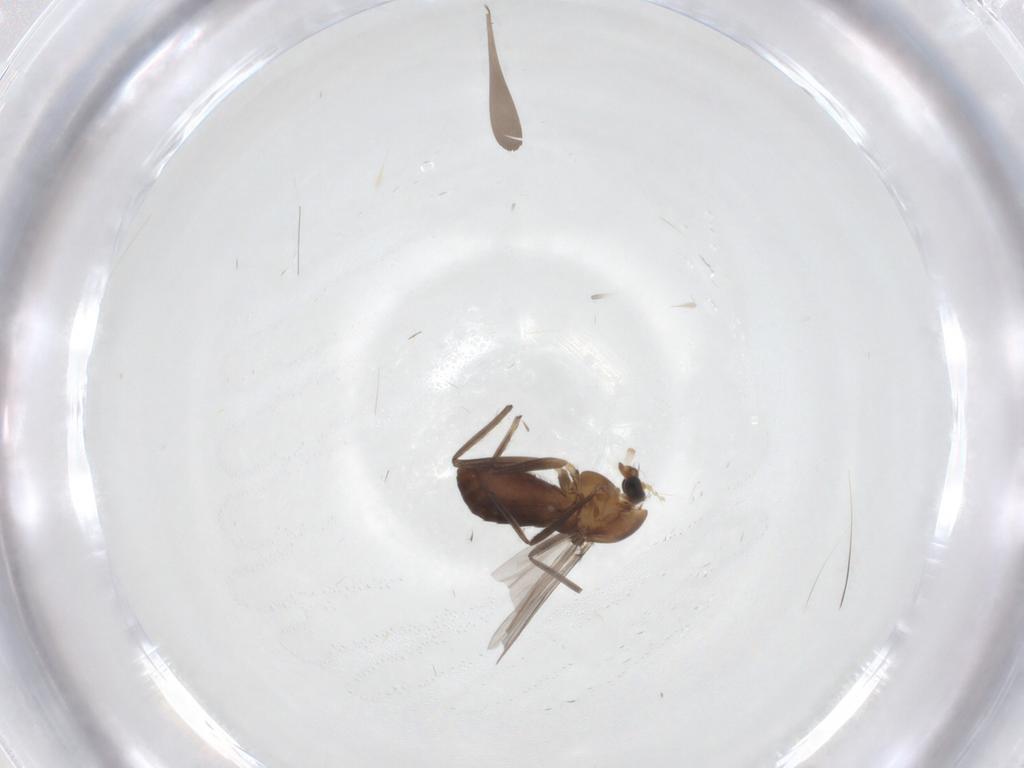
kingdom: Animalia
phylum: Arthropoda
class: Insecta
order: Diptera
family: Chironomidae
